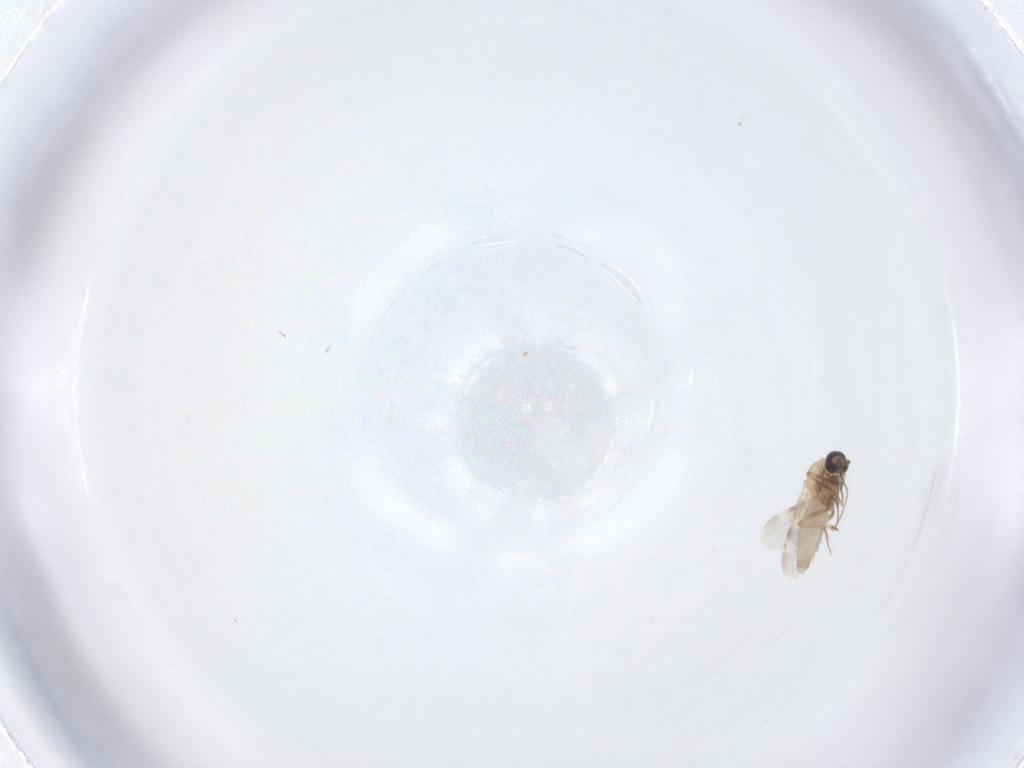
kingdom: Animalia
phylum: Arthropoda
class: Insecta
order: Diptera
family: Ceratopogonidae
